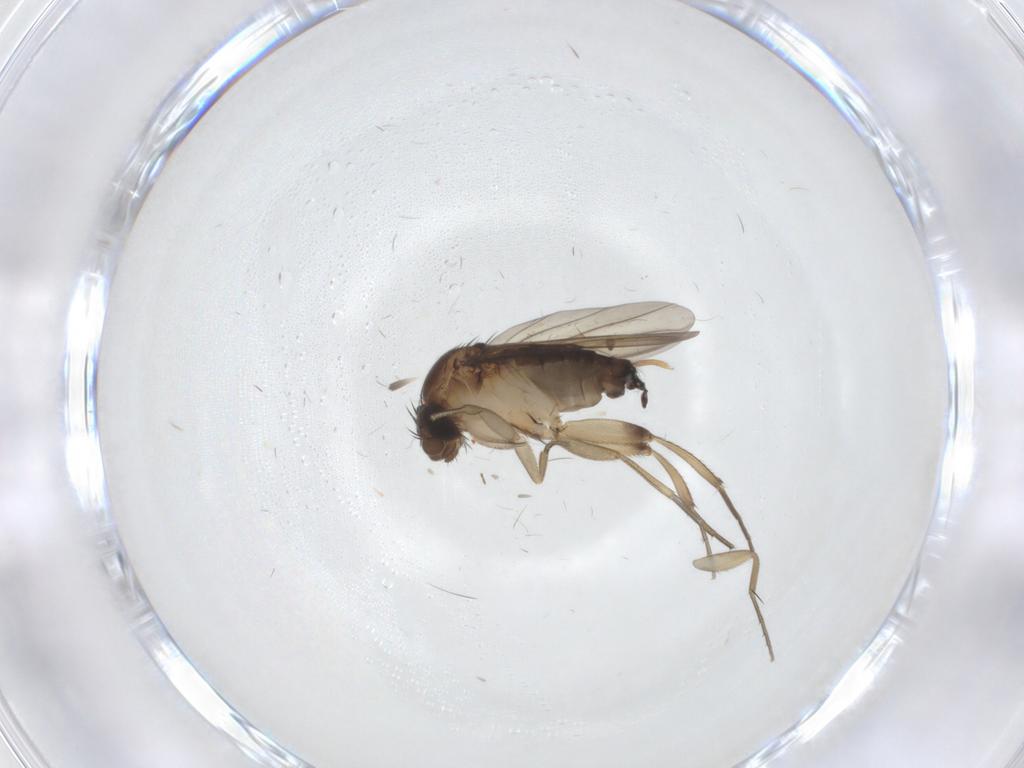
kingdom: Animalia
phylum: Arthropoda
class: Insecta
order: Diptera
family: Phoridae
